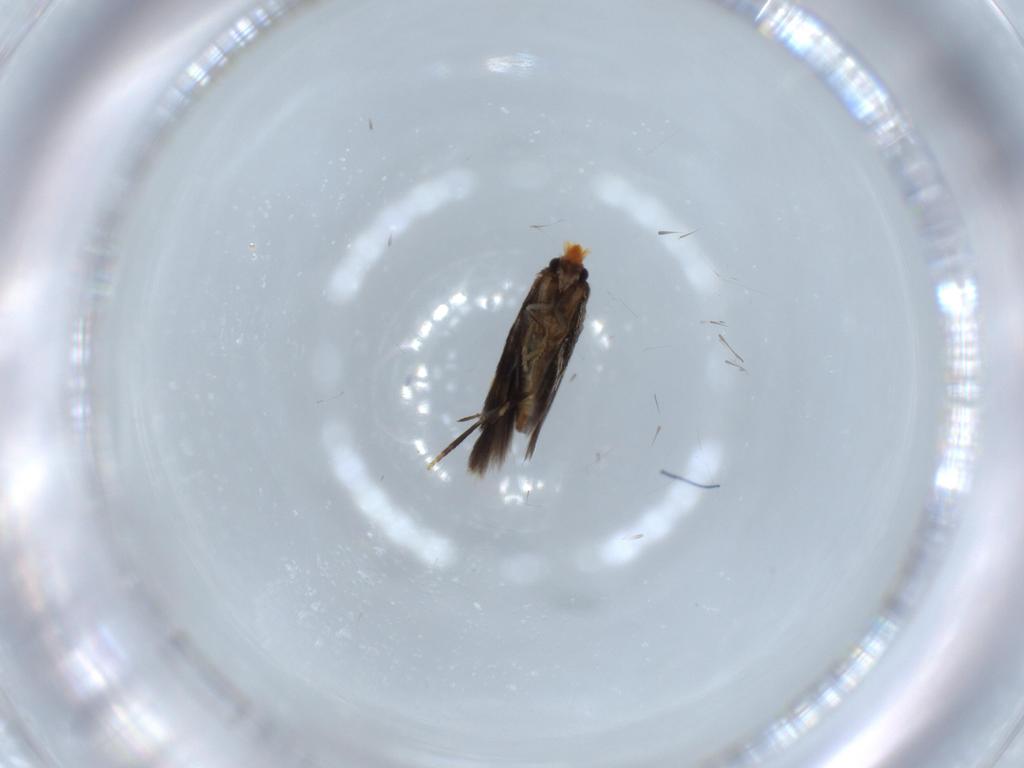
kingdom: Animalia
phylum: Arthropoda
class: Insecta
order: Lepidoptera
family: Nepticulidae
